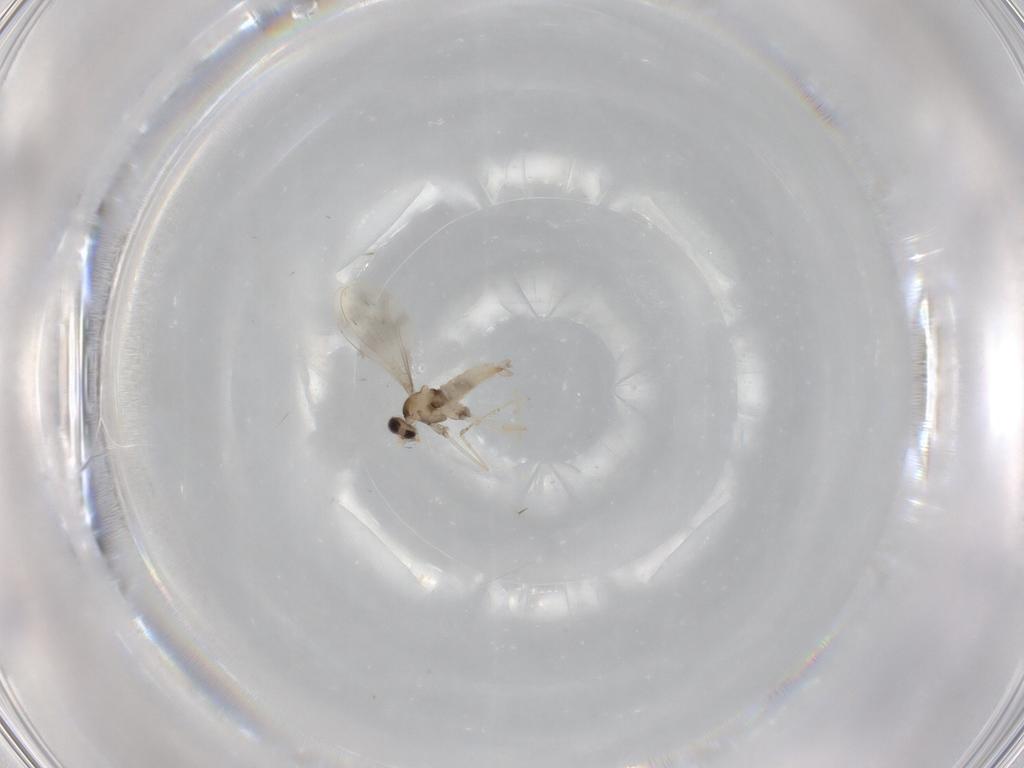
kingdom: Animalia
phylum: Arthropoda
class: Insecta
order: Diptera
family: Cecidomyiidae
